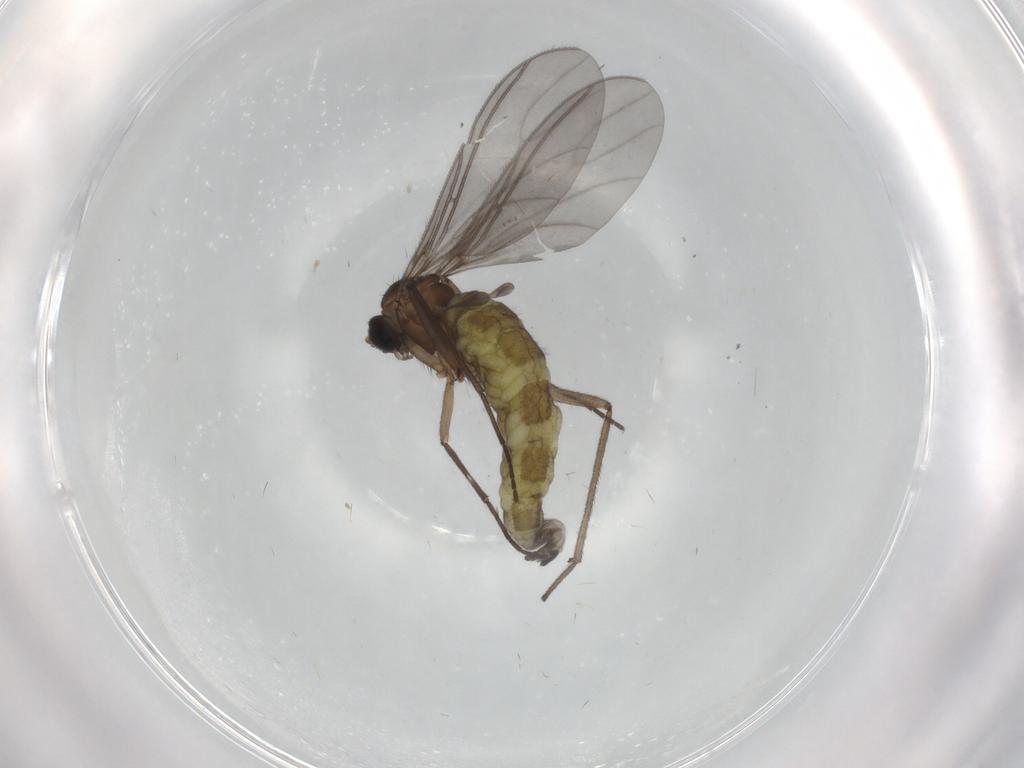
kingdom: Animalia
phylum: Arthropoda
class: Insecta
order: Diptera
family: Sciaridae
